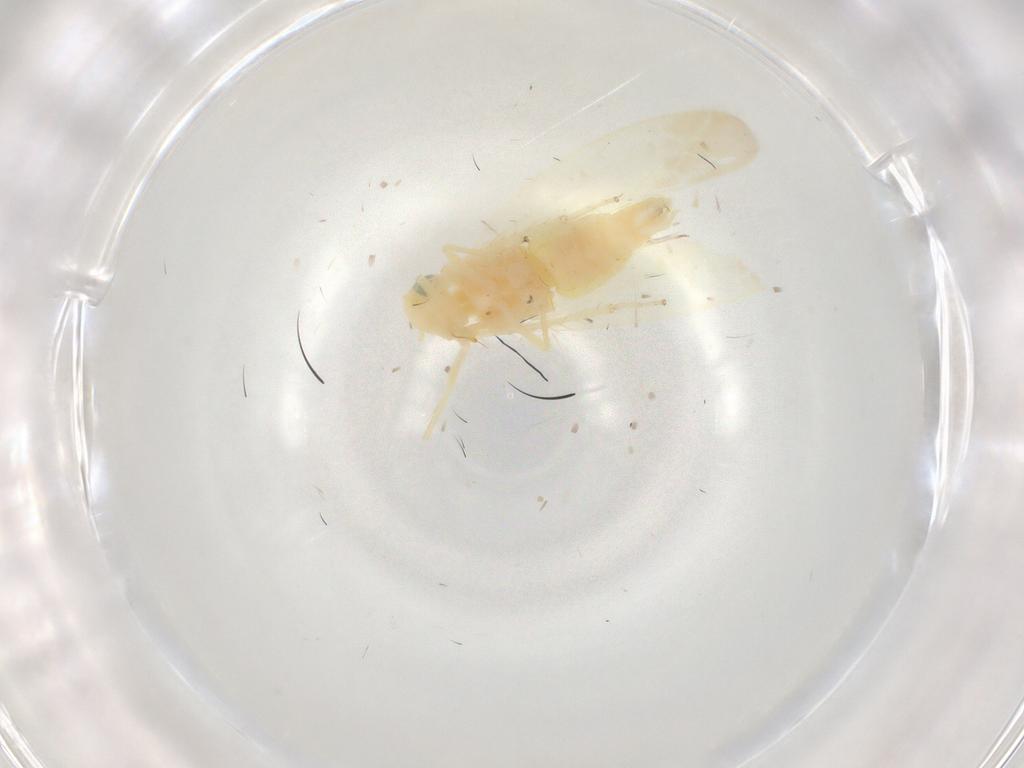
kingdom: Animalia
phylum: Arthropoda
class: Insecta
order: Hemiptera
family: Cicadellidae
